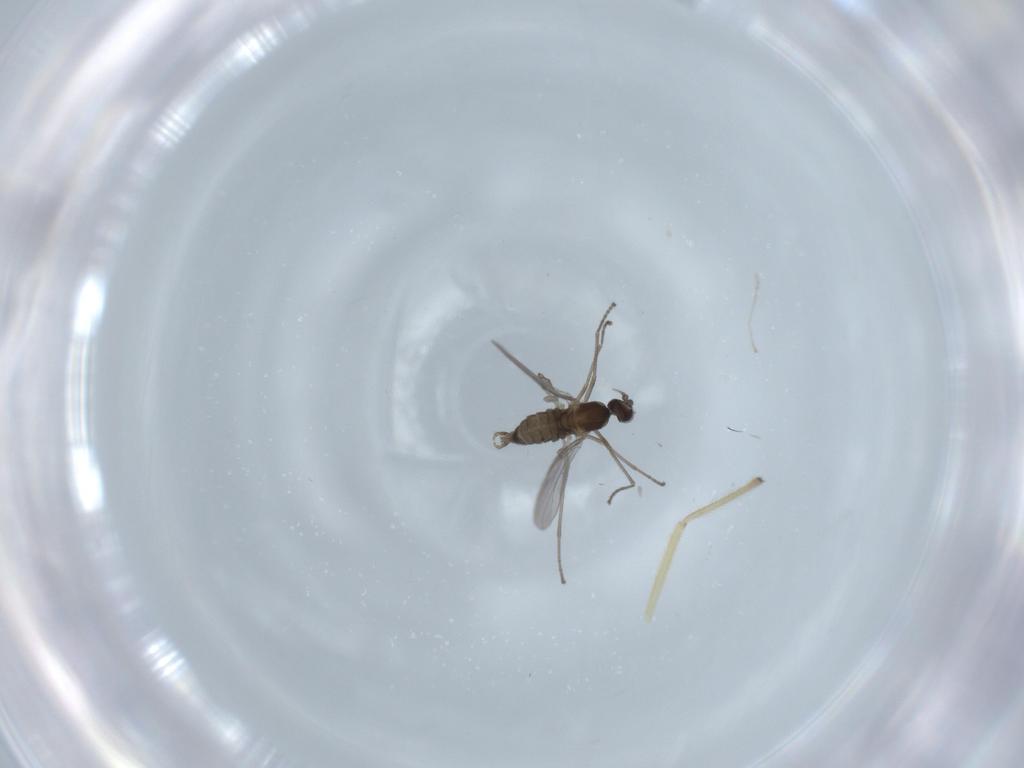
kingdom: Animalia
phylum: Arthropoda
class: Insecta
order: Diptera
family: Cecidomyiidae
